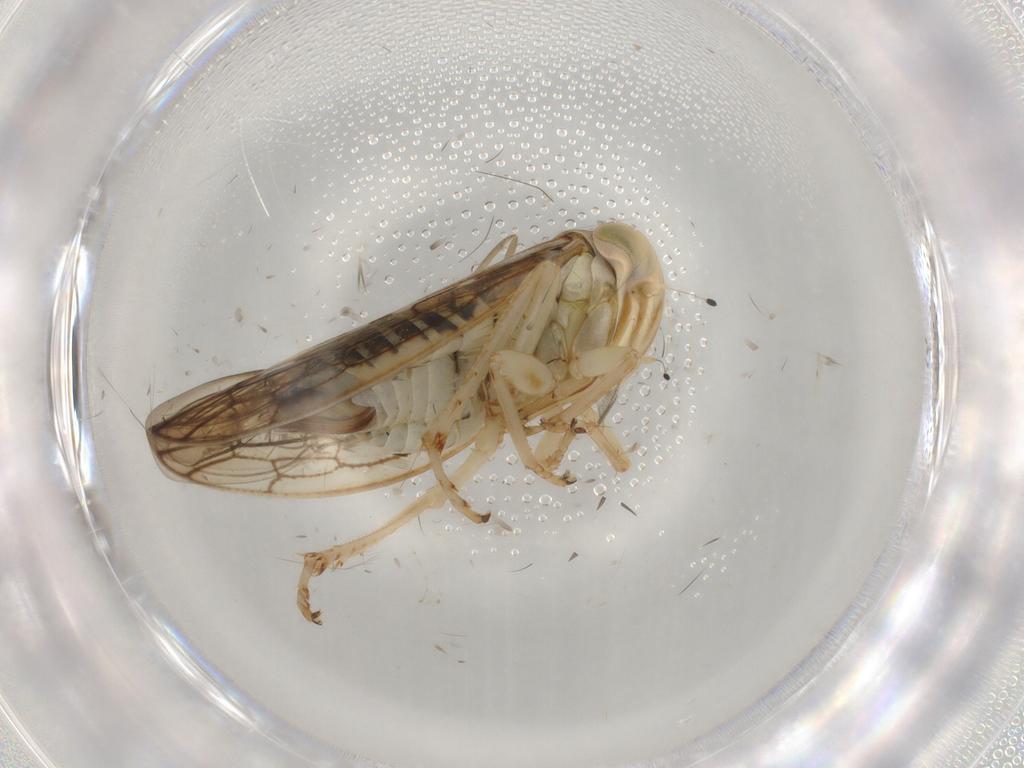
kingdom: Animalia
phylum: Arthropoda
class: Insecta
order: Hemiptera
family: Cicadellidae
